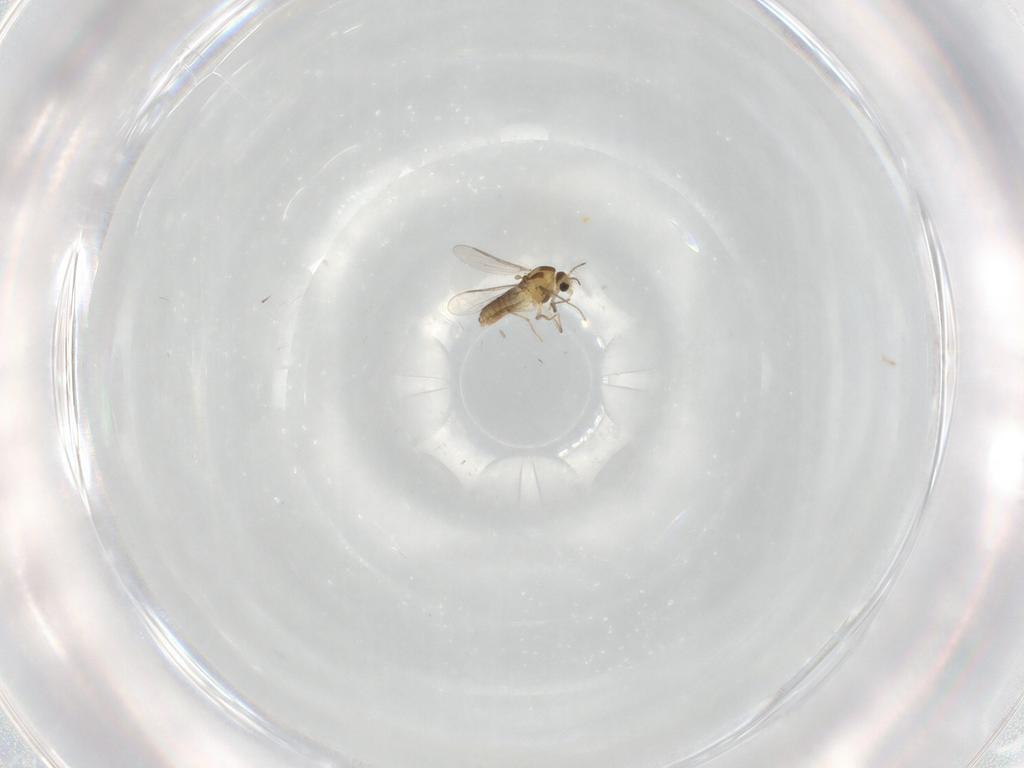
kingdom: Animalia
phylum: Arthropoda
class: Insecta
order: Diptera
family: Chironomidae
